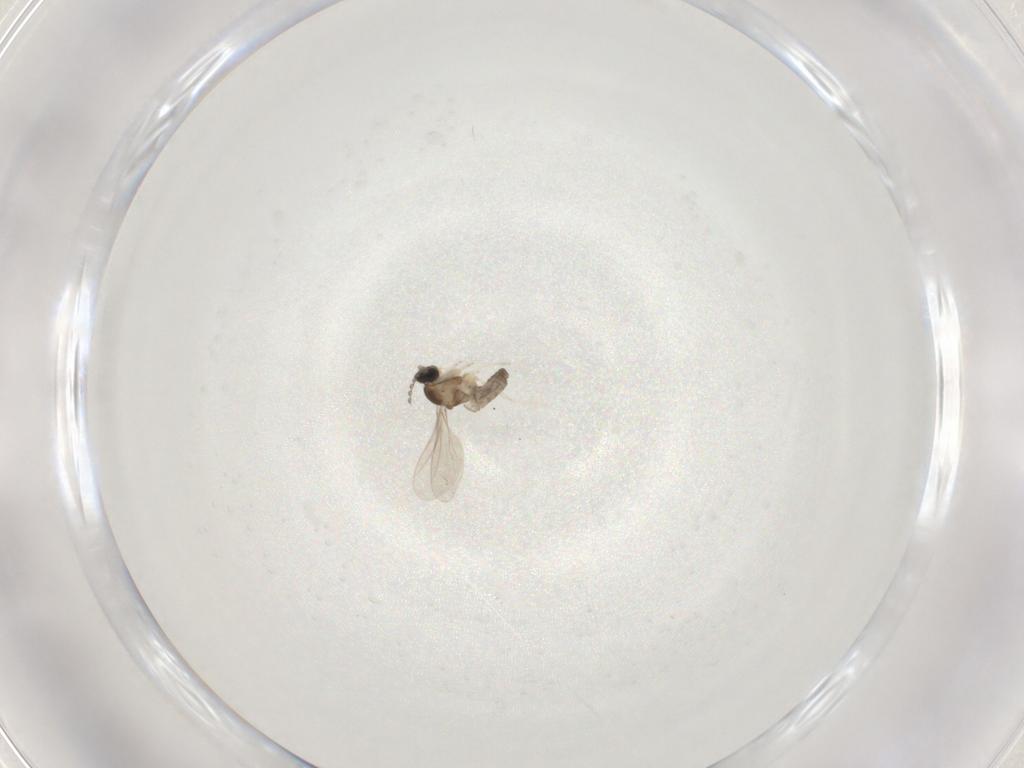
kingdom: Animalia
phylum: Arthropoda
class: Insecta
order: Diptera
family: Cecidomyiidae
